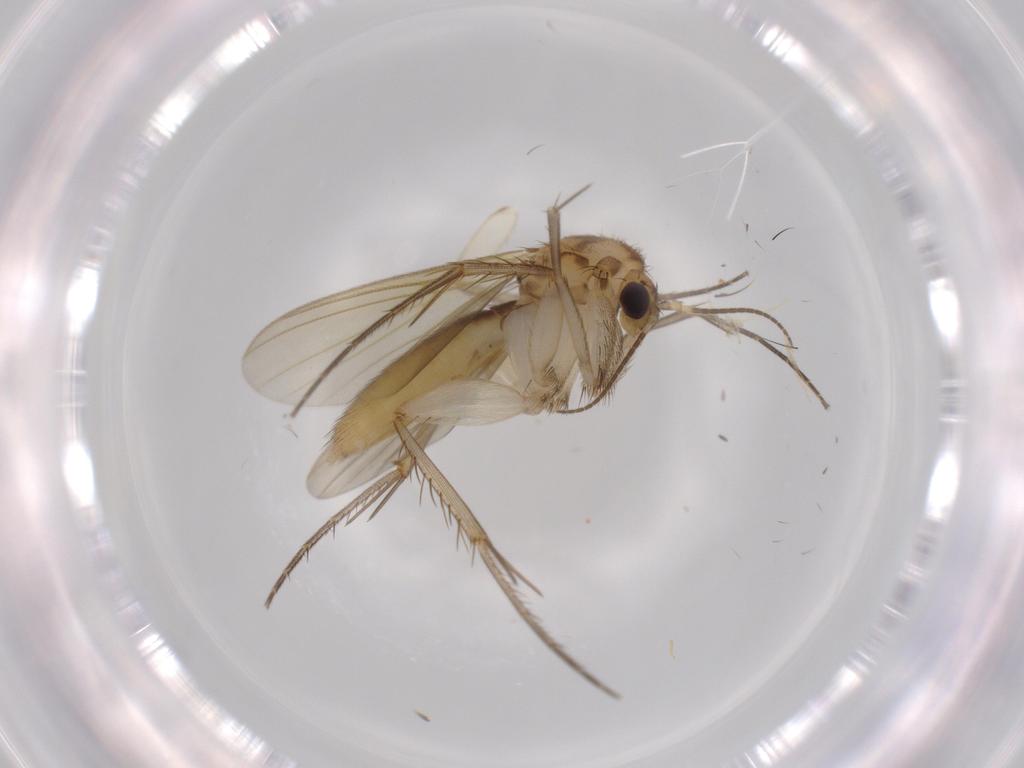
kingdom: Animalia
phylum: Arthropoda
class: Insecta
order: Diptera
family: Mycetophilidae
